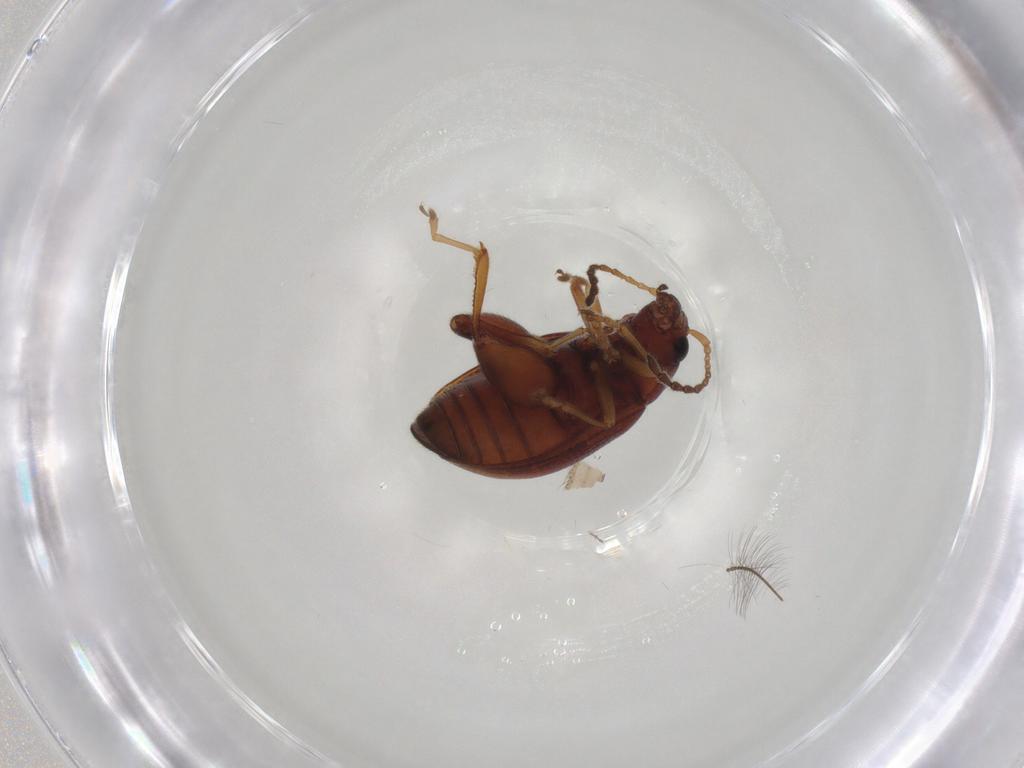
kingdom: Animalia
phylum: Arthropoda
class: Insecta
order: Coleoptera
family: Chrysomelidae
